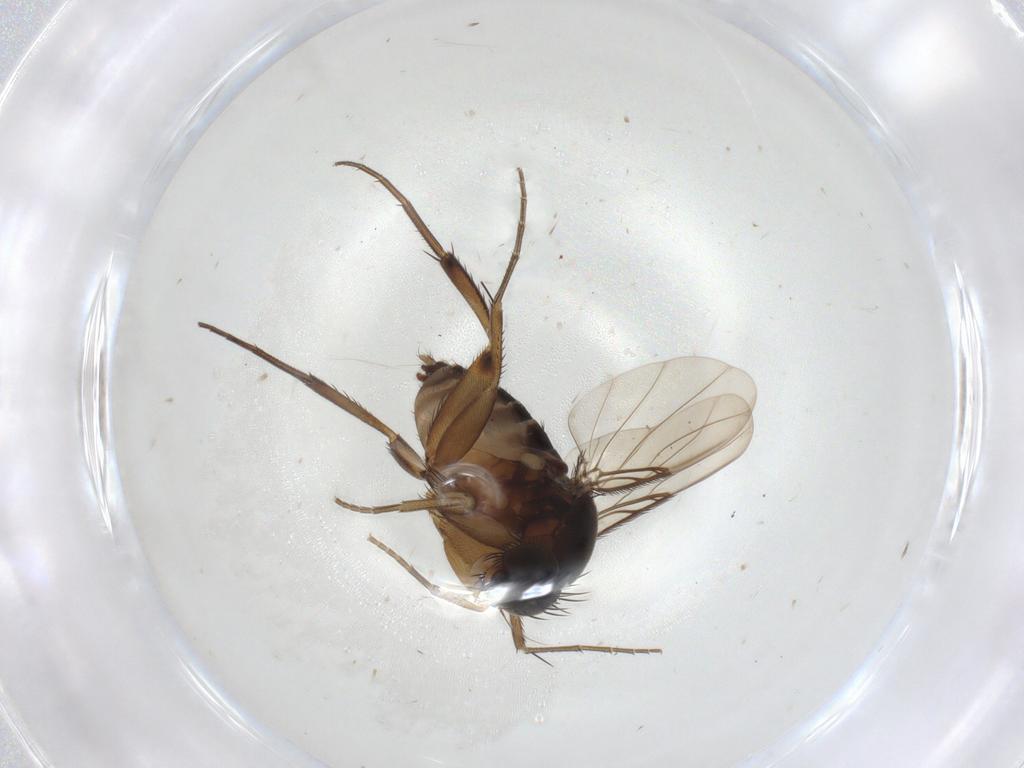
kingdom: Animalia
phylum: Arthropoda
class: Insecta
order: Diptera
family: Phoridae
